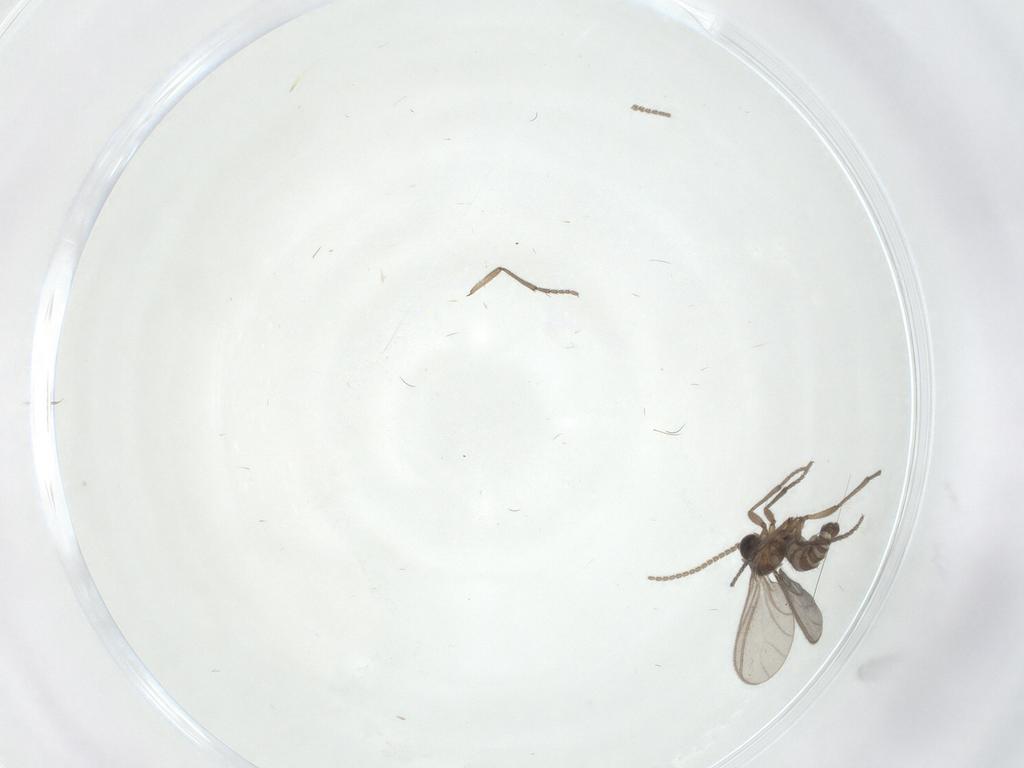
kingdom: Animalia
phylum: Arthropoda
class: Insecta
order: Diptera
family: Sciaridae
